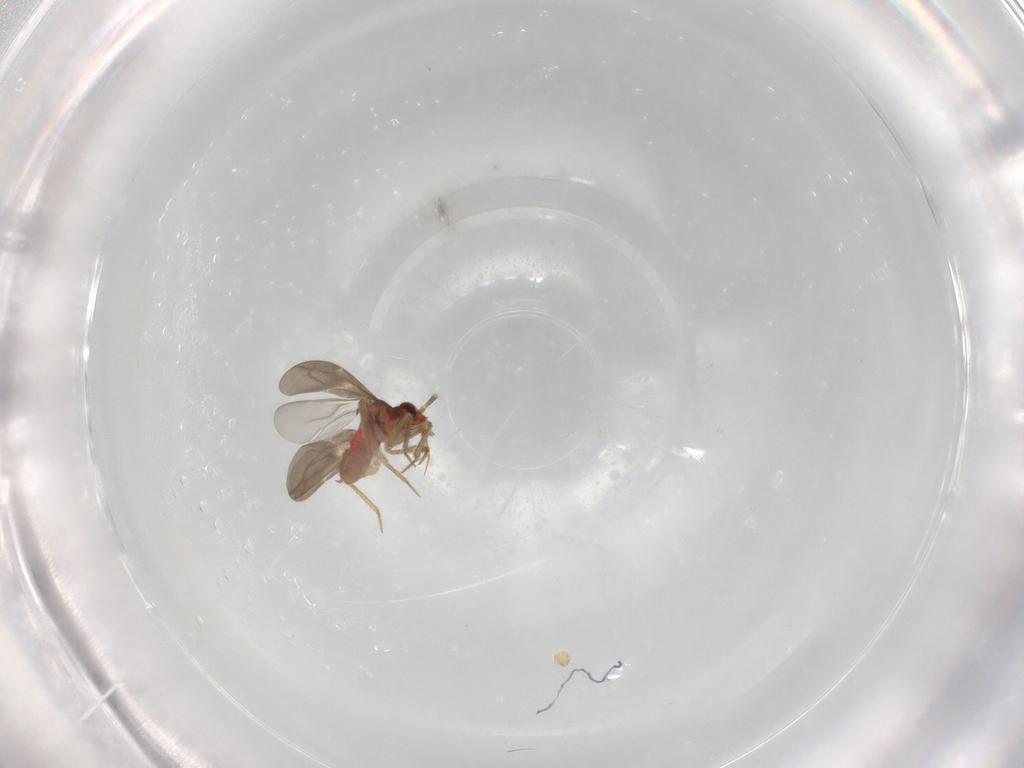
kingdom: Animalia
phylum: Arthropoda
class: Insecta
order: Hemiptera
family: Ceratocombidae
